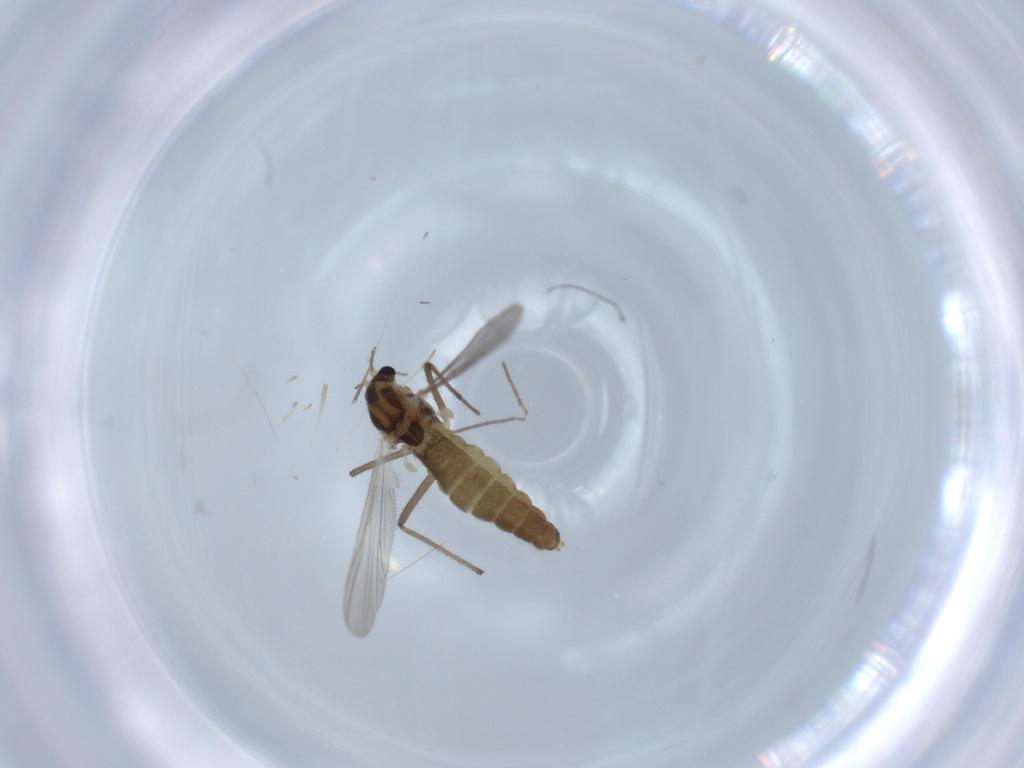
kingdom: Animalia
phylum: Arthropoda
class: Insecta
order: Diptera
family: Chironomidae
